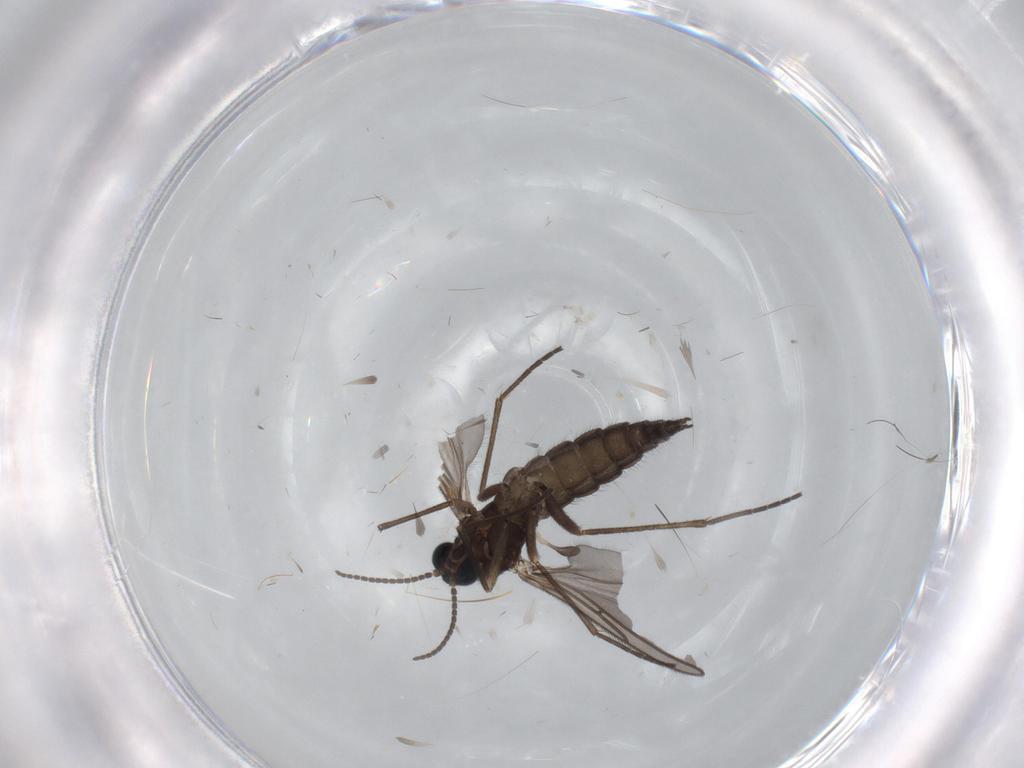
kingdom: Animalia
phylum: Arthropoda
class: Insecta
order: Diptera
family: Sciaridae
